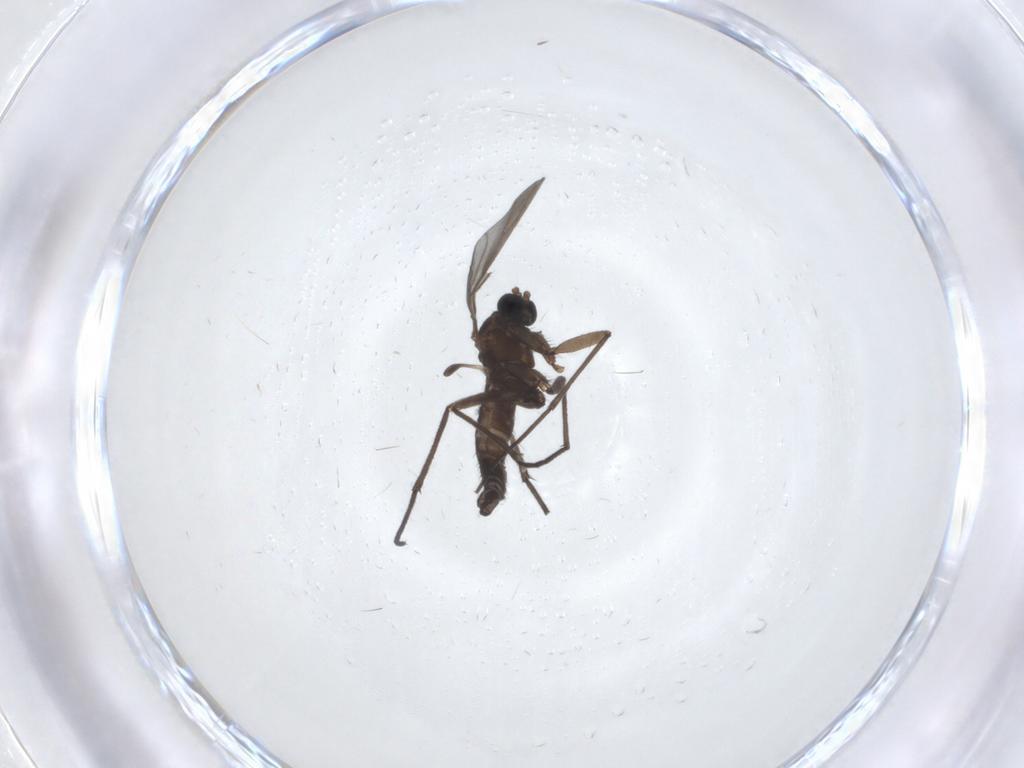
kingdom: Animalia
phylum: Arthropoda
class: Insecta
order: Diptera
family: Sciaridae
